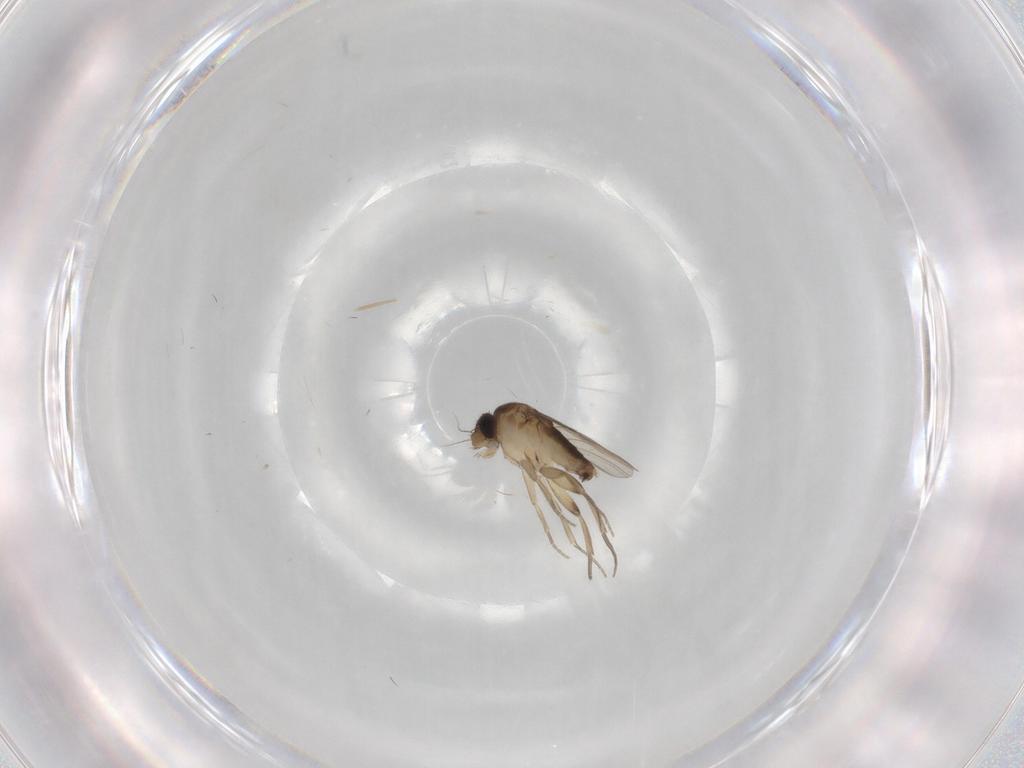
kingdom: Animalia
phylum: Arthropoda
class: Insecta
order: Diptera
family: Phoridae
